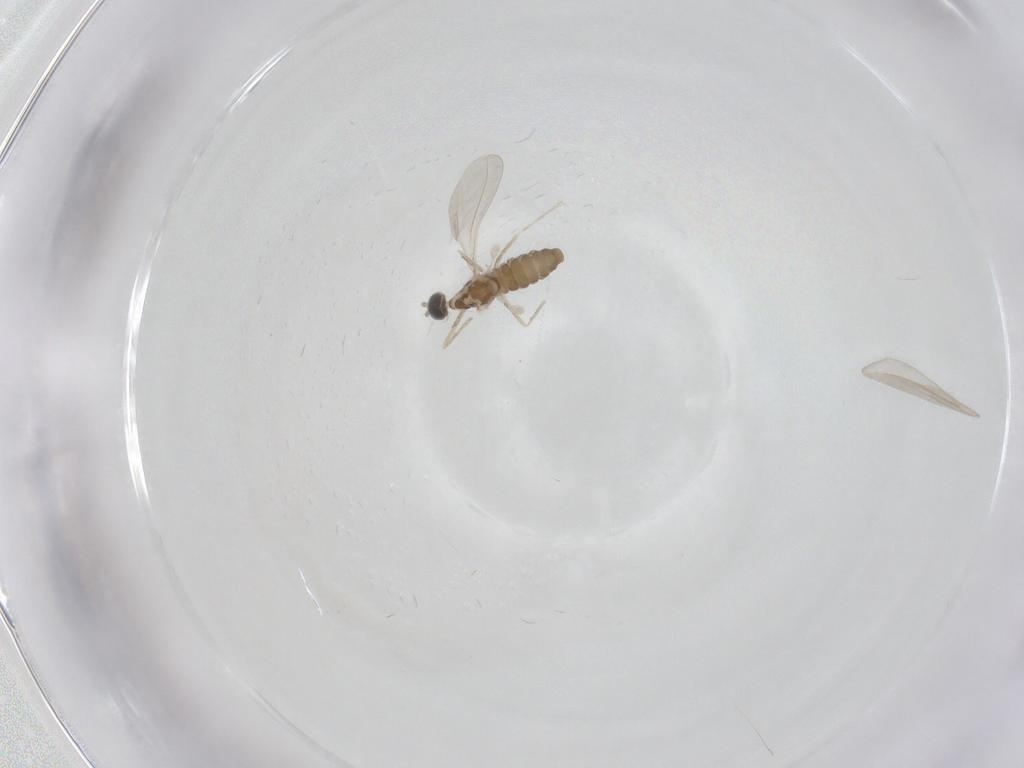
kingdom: Animalia
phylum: Arthropoda
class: Insecta
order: Diptera
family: Cecidomyiidae
